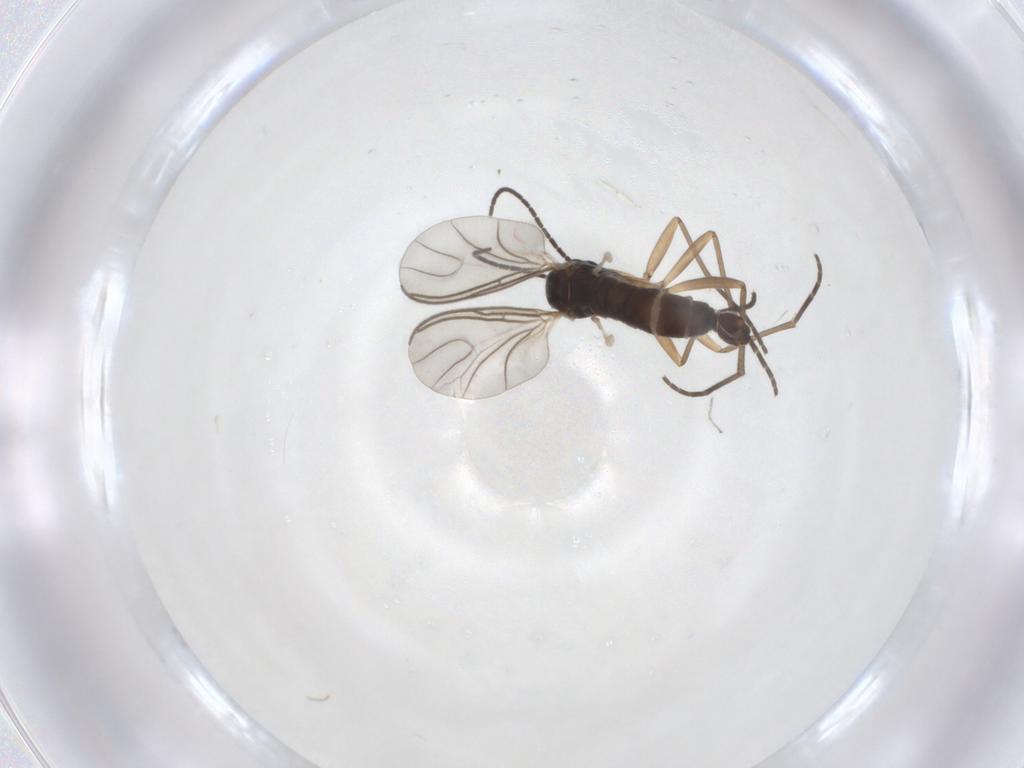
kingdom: Animalia
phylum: Arthropoda
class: Insecta
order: Diptera
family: Sciaridae
